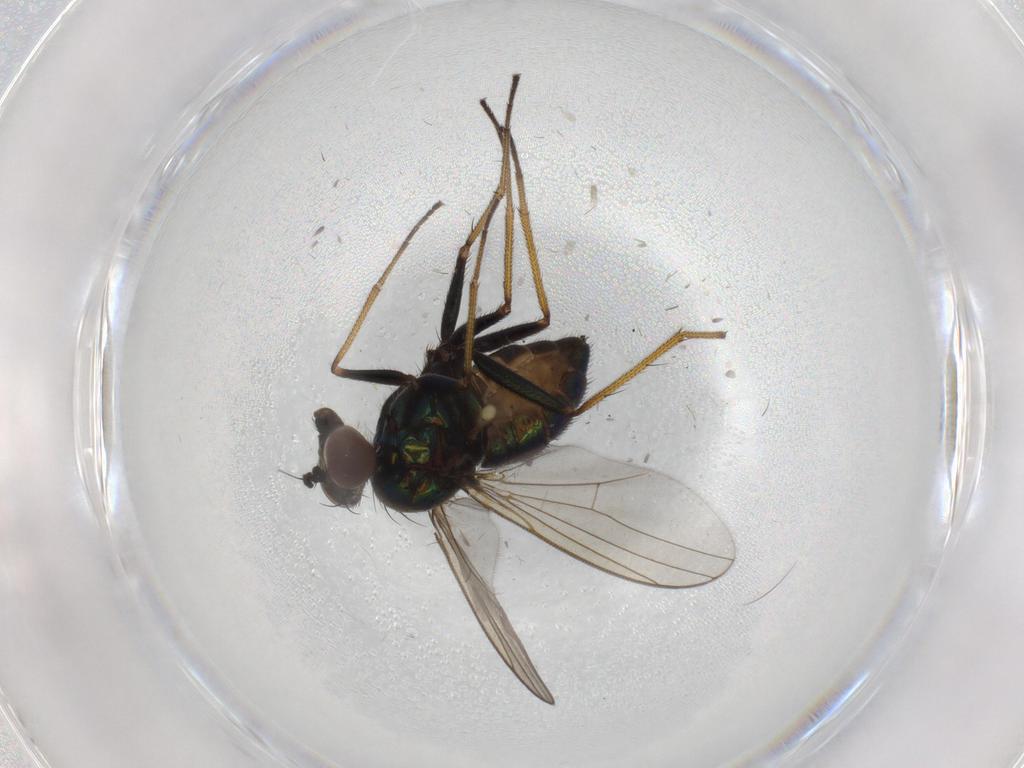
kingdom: Animalia
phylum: Arthropoda
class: Insecta
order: Diptera
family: Dolichopodidae
